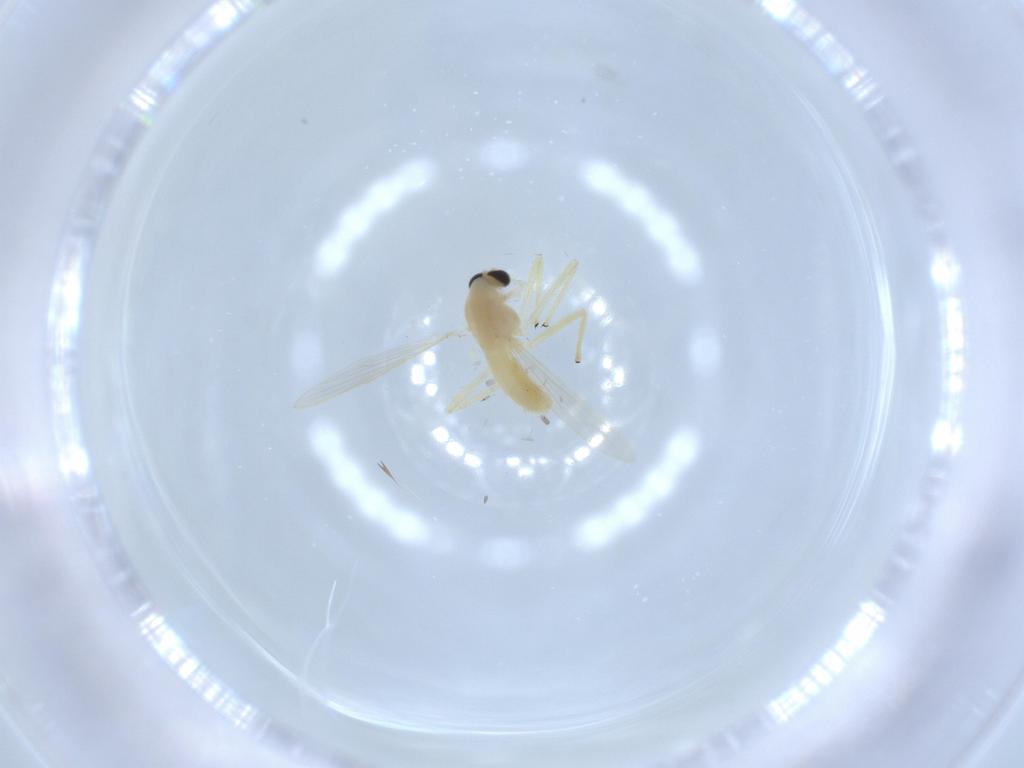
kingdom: Animalia
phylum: Arthropoda
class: Insecta
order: Diptera
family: Chironomidae
